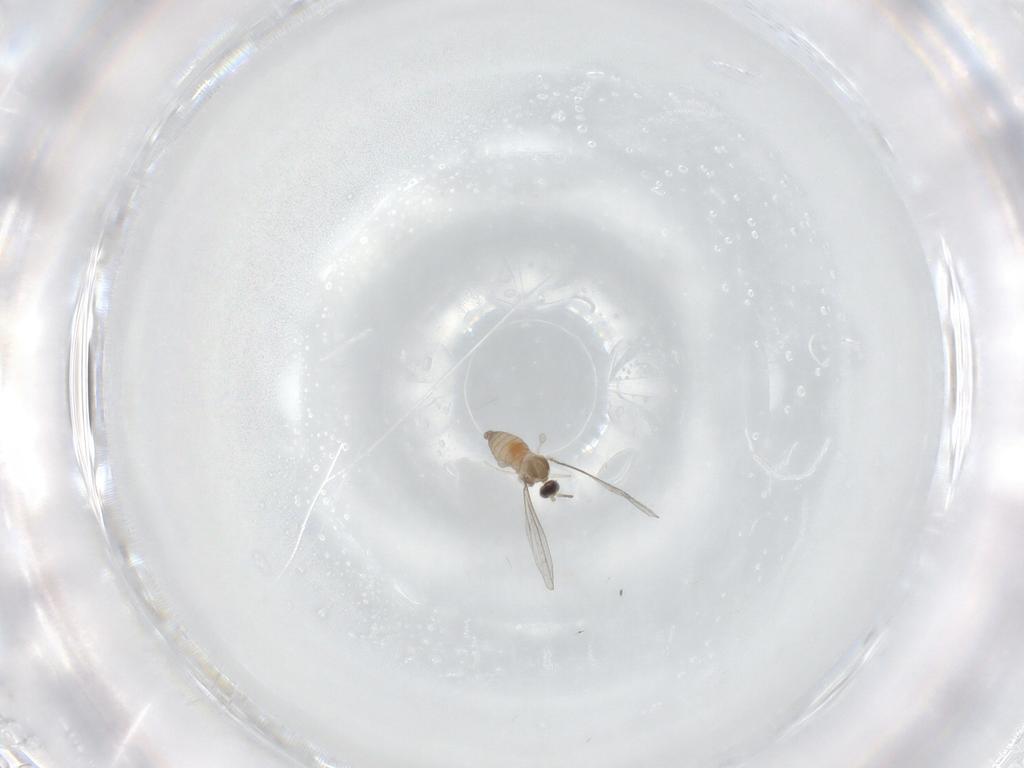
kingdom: Animalia
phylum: Arthropoda
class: Insecta
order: Diptera
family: Cecidomyiidae
